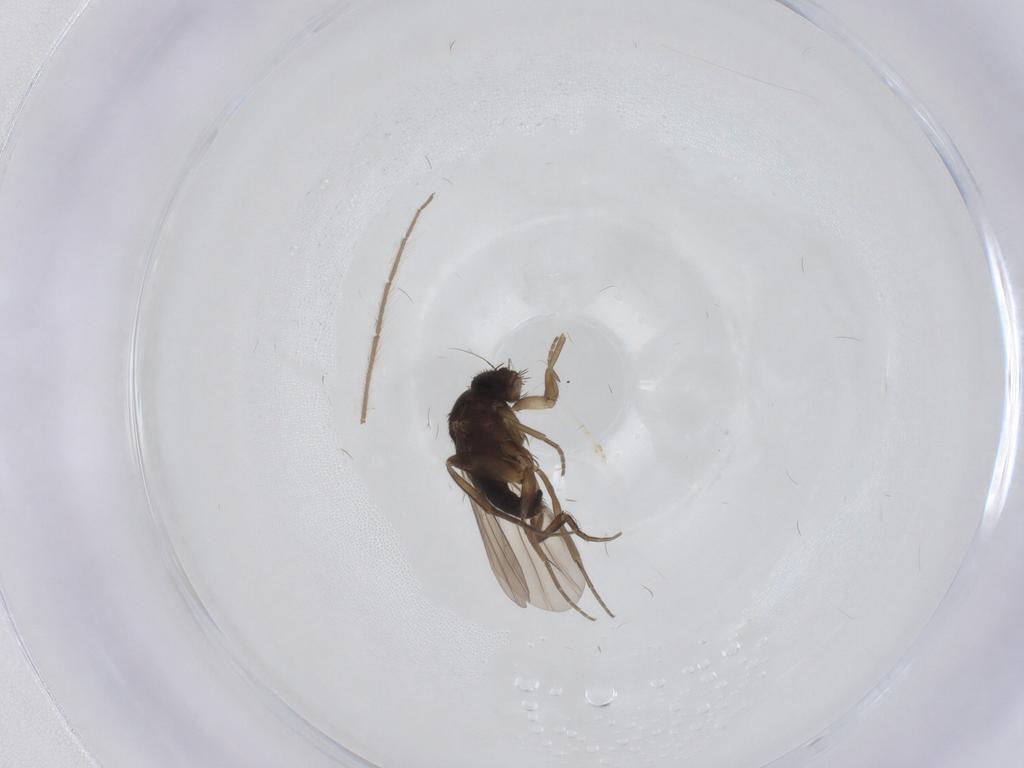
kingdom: Animalia
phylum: Arthropoda
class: Insecta
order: Diptera
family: Phoridae
